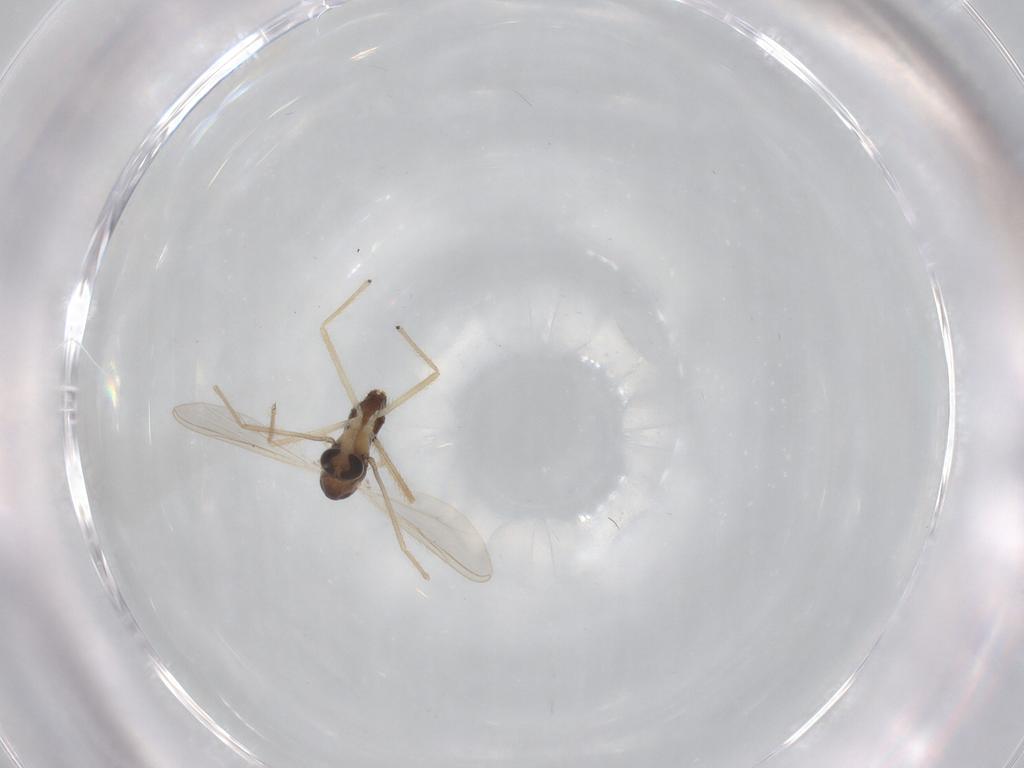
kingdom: Animalia
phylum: Arthropoda
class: Insecta
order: Diptera
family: Chironomidae
